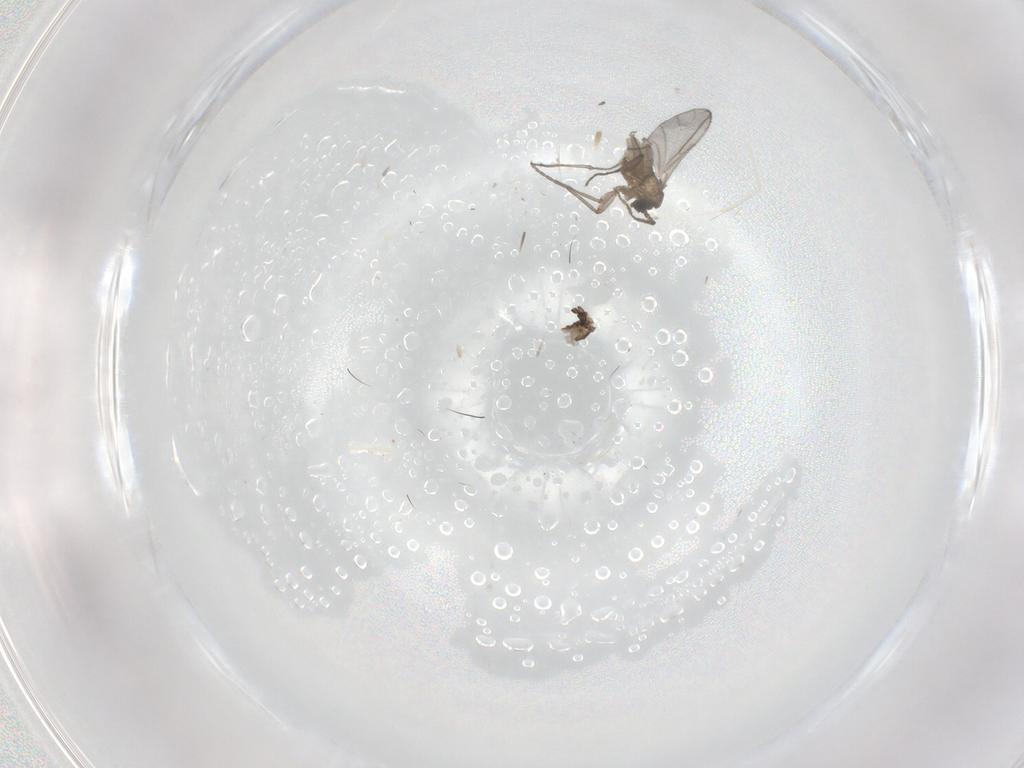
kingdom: Animalia
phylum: Arthropoda
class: Insecta
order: Diptera
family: Sciaridae
